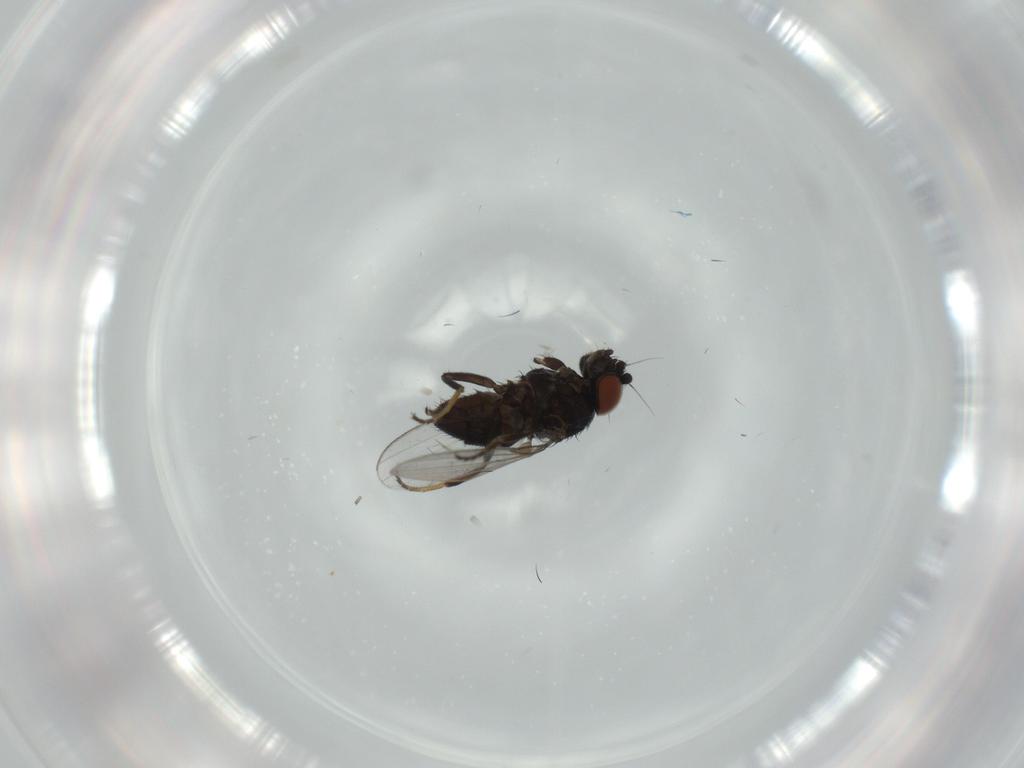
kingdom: Animalia
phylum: Arthropoda
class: Insecta
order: Diptera
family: Milichiidae
